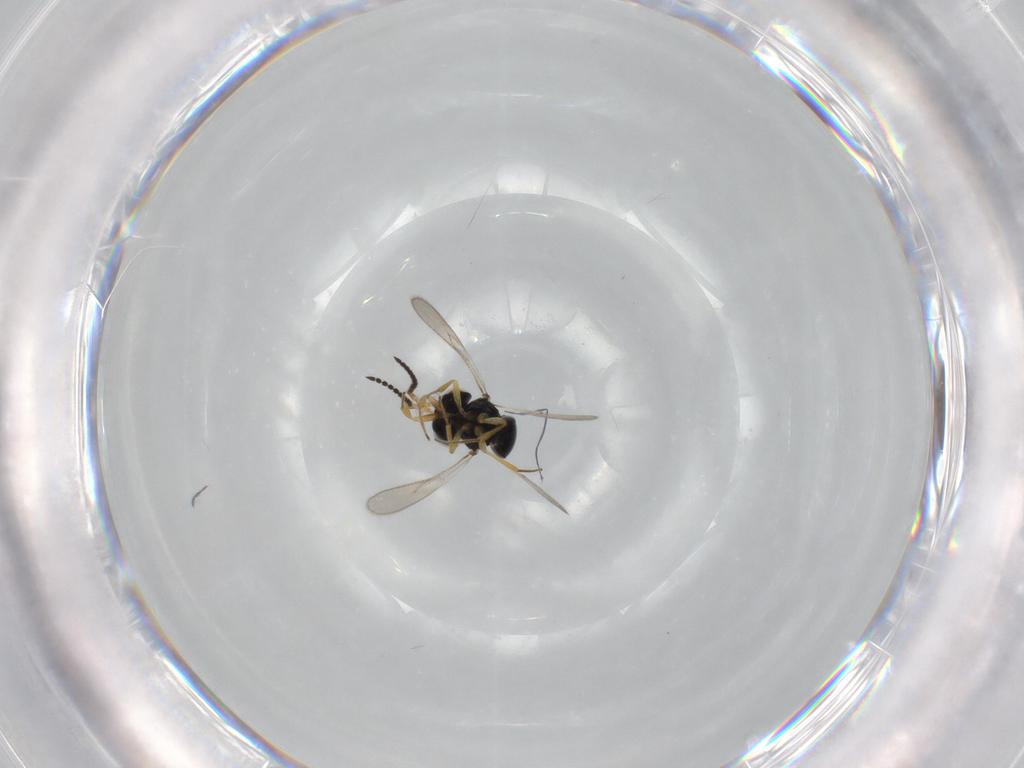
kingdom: Animalia
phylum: Arthropoda
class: Insecta
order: Hymenoptera
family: Scelionidae
